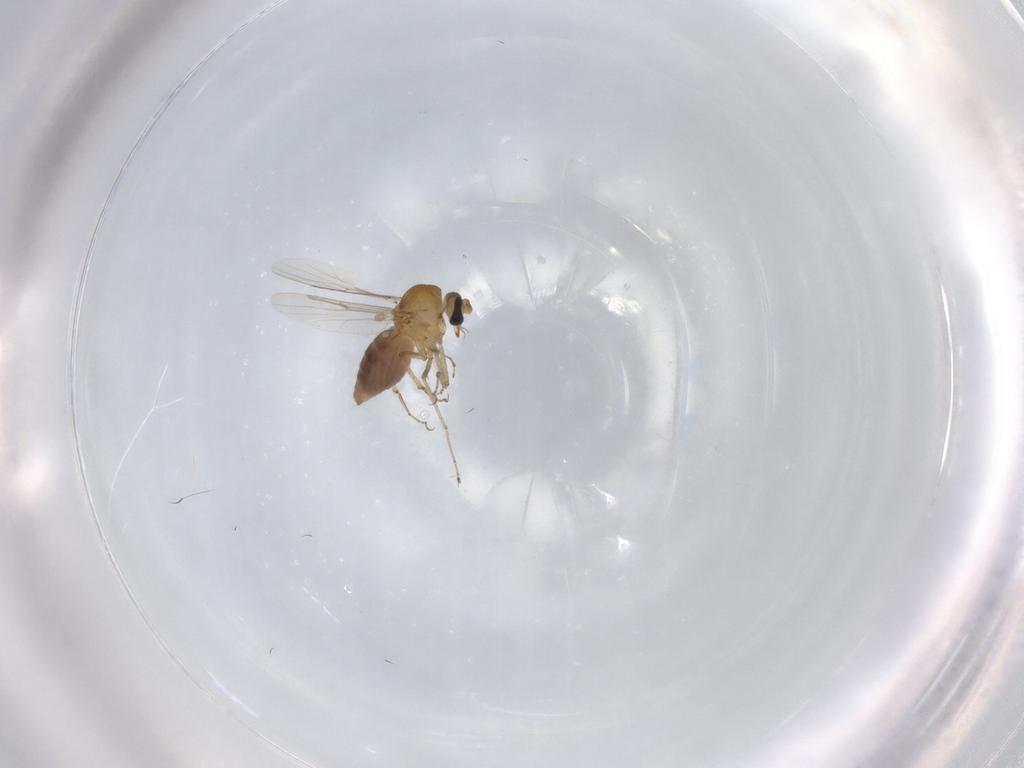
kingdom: Animalia
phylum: Arthropoda
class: Insecta
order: Diptera
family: Ceratopogonidae
